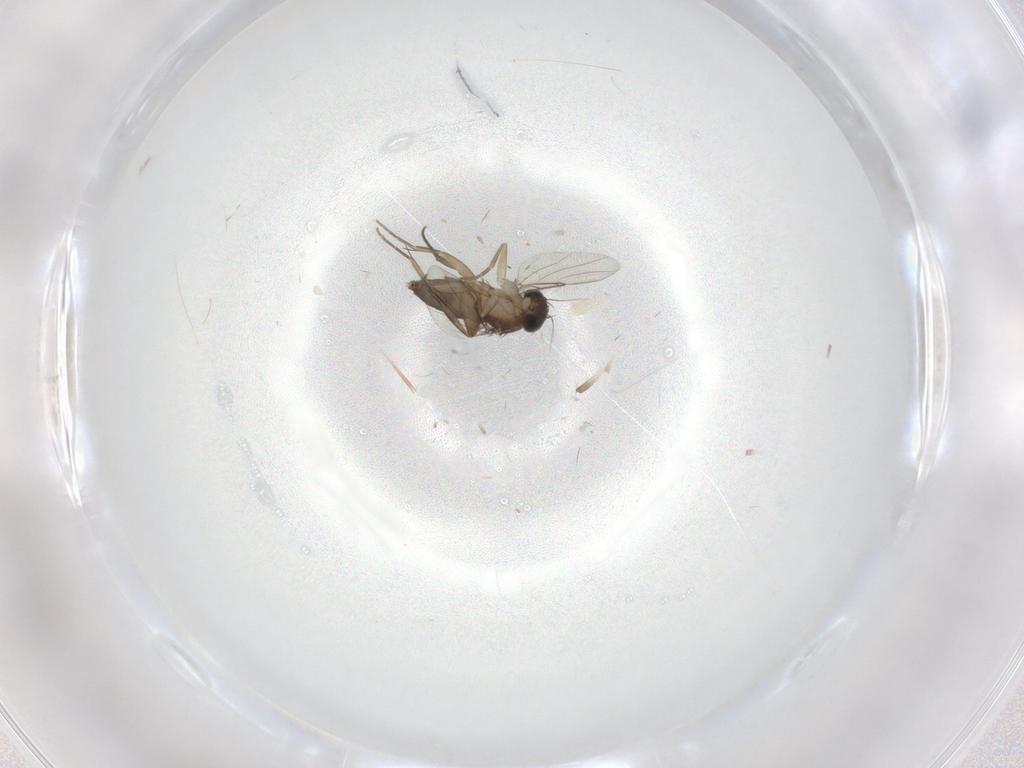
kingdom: Animalia
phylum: Arthropoda
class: Insecta
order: Diptera
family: Phoridae
